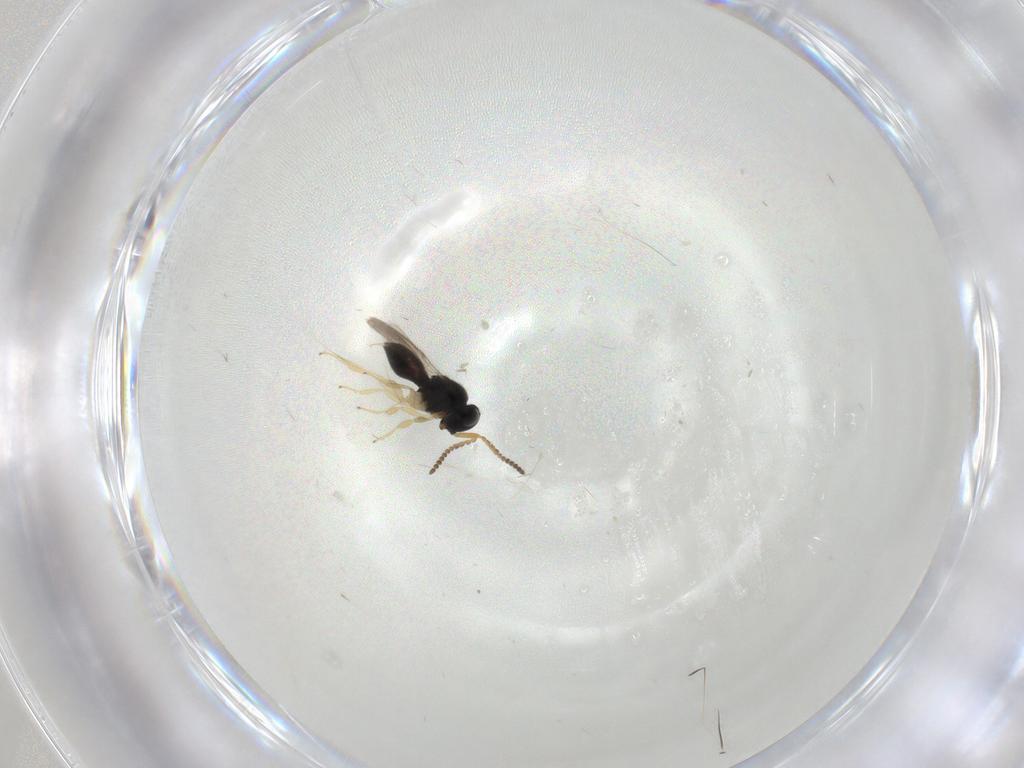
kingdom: Animalia
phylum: Arthropoda
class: Insecta
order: Hymenoptera
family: Scelionidae
